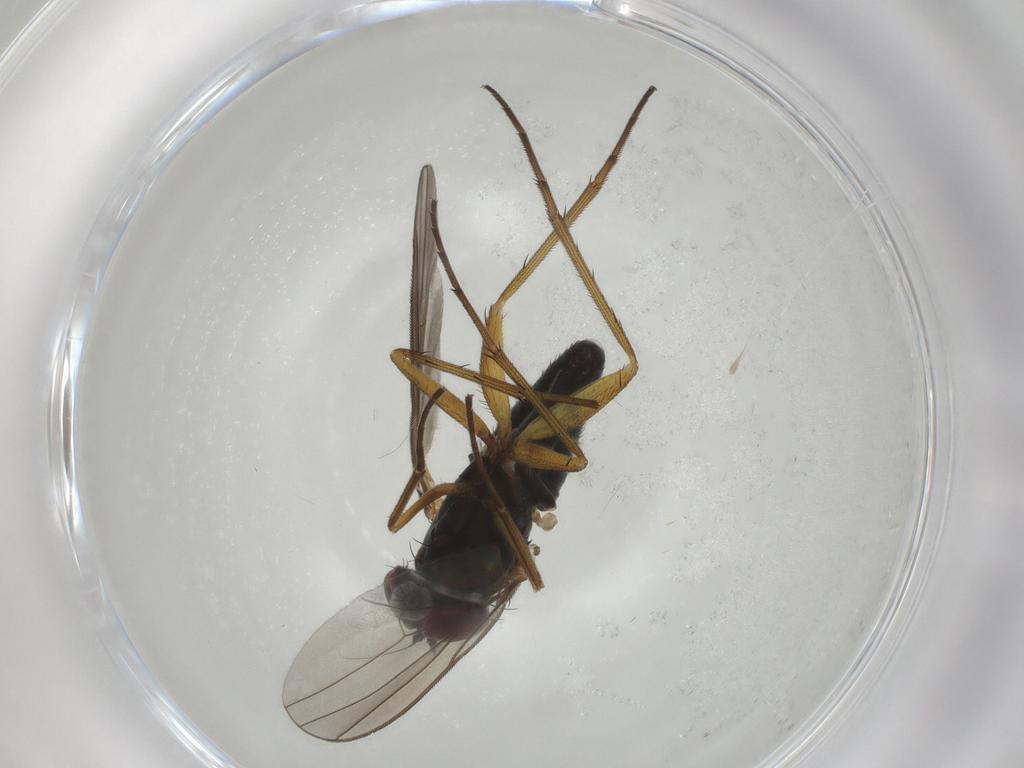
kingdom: Animalia
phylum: Arthropoda
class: Insecta
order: Diptera
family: Dolichopodidae
